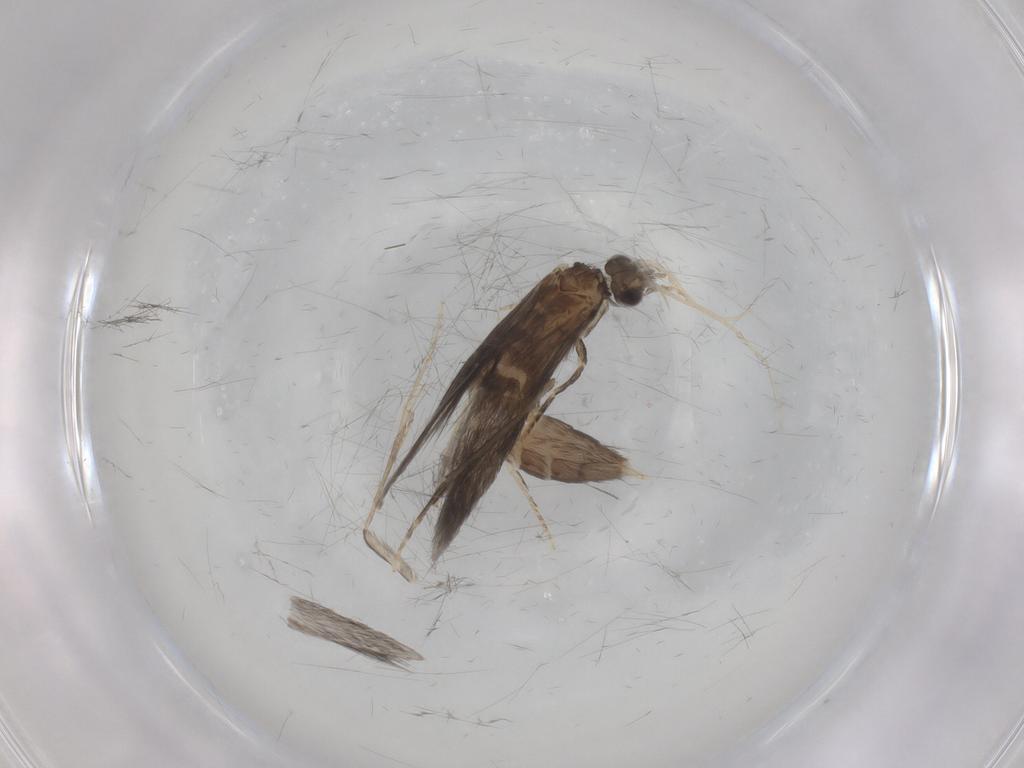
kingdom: Animalia
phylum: Arthropoda
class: Insecta
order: Trichoptera
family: Hydroptilidae
